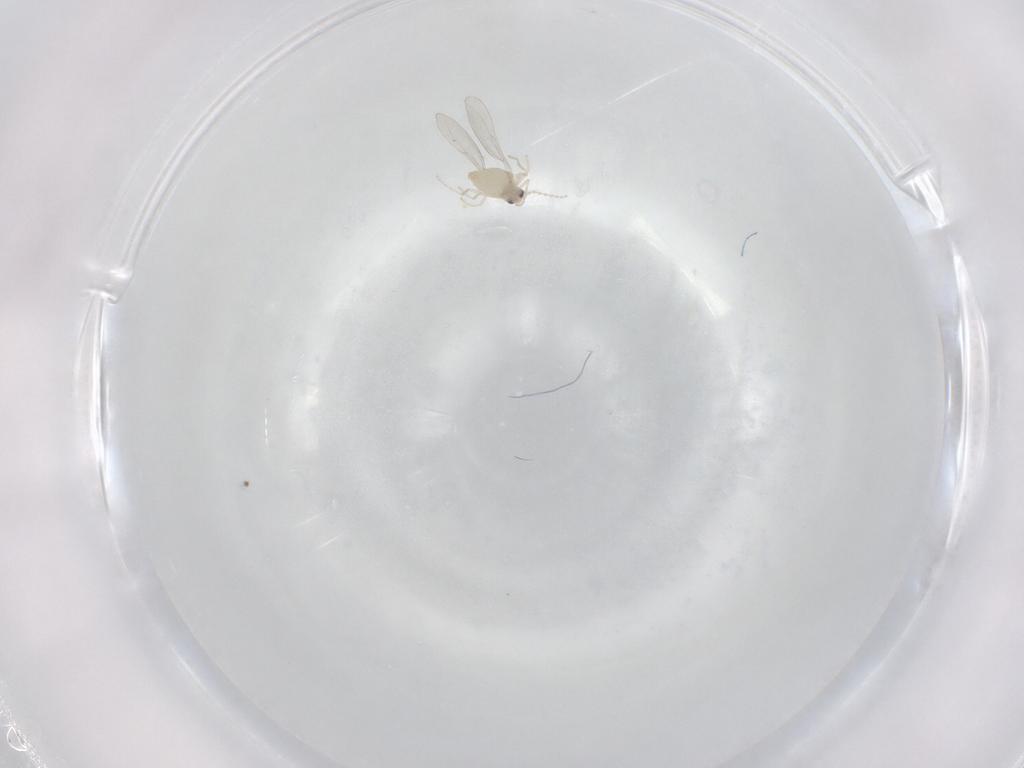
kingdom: Animalia
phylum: Arthropoda
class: Insecta
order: Diptera
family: Cecidomyiidae
